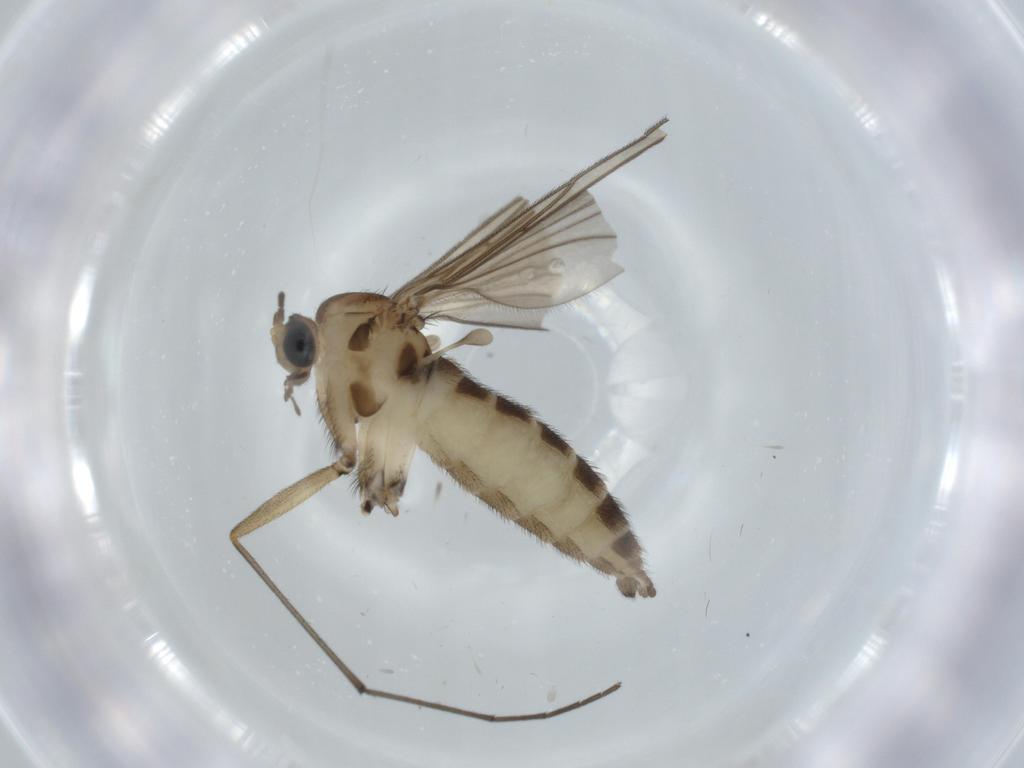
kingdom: Animalia
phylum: Arthropoda
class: Insecta
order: Diptera
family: Sciaridae
